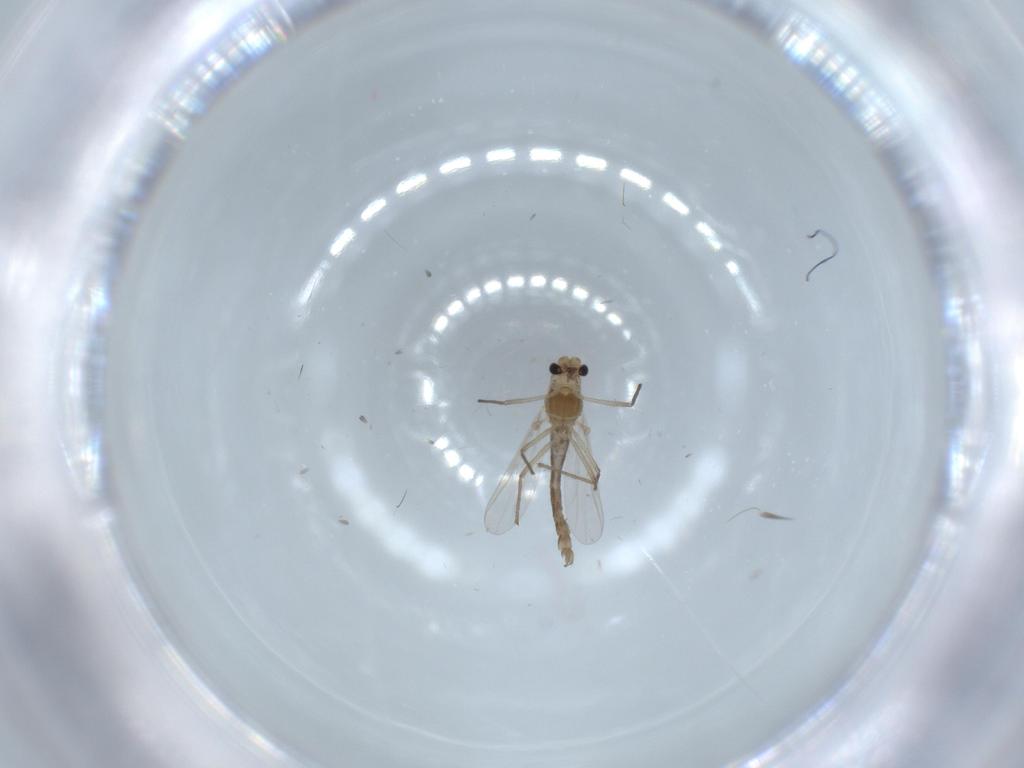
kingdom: Animalia
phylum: Arthropoda
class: Insecta
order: Diptera
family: Chironomidae
